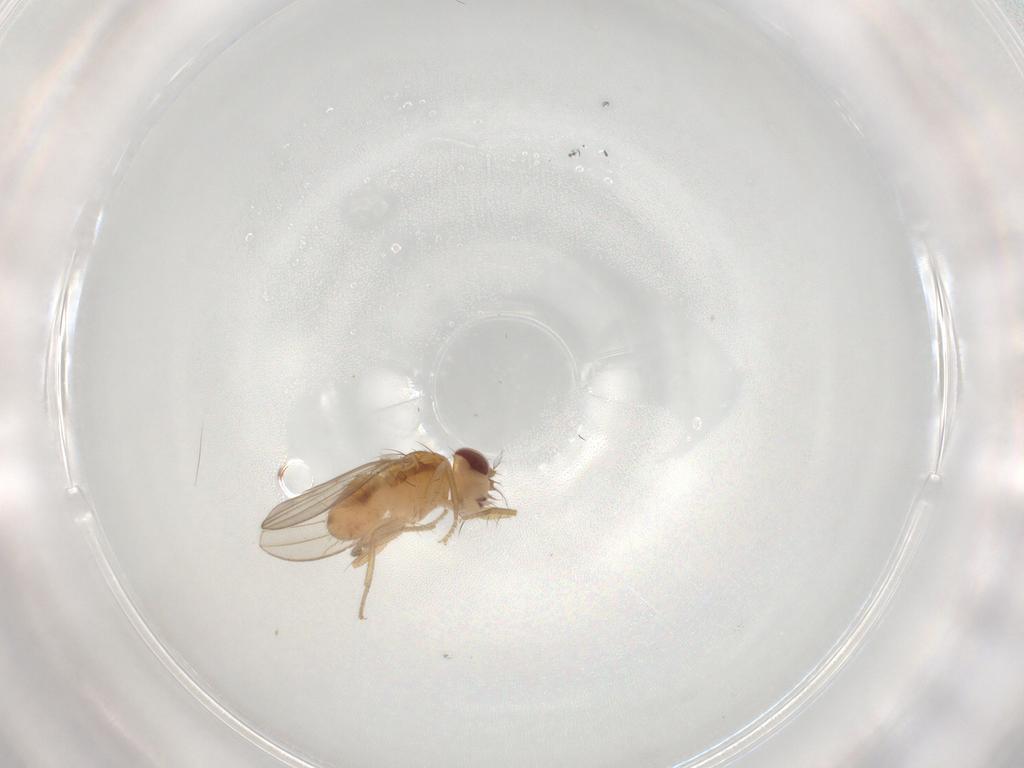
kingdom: Animalia
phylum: Arthropoda
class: Insecta
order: Diptera
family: Drosophilidae
